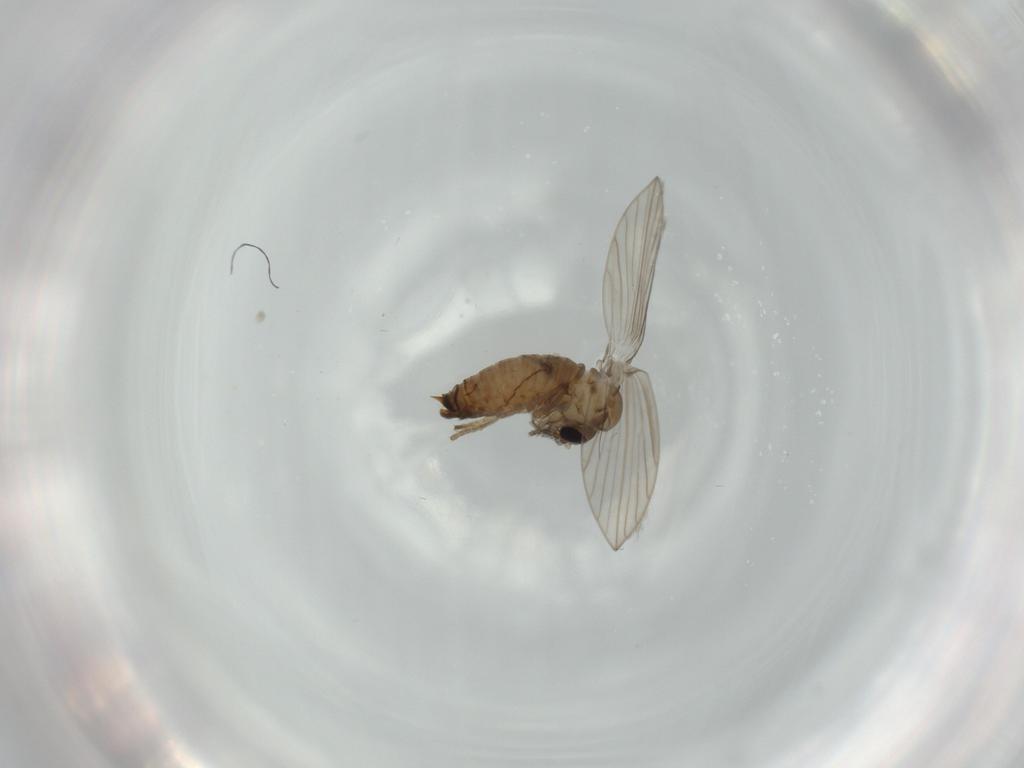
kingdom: Animalia
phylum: Arthropoda
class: Insecta
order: Diptera
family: Psychodidae
